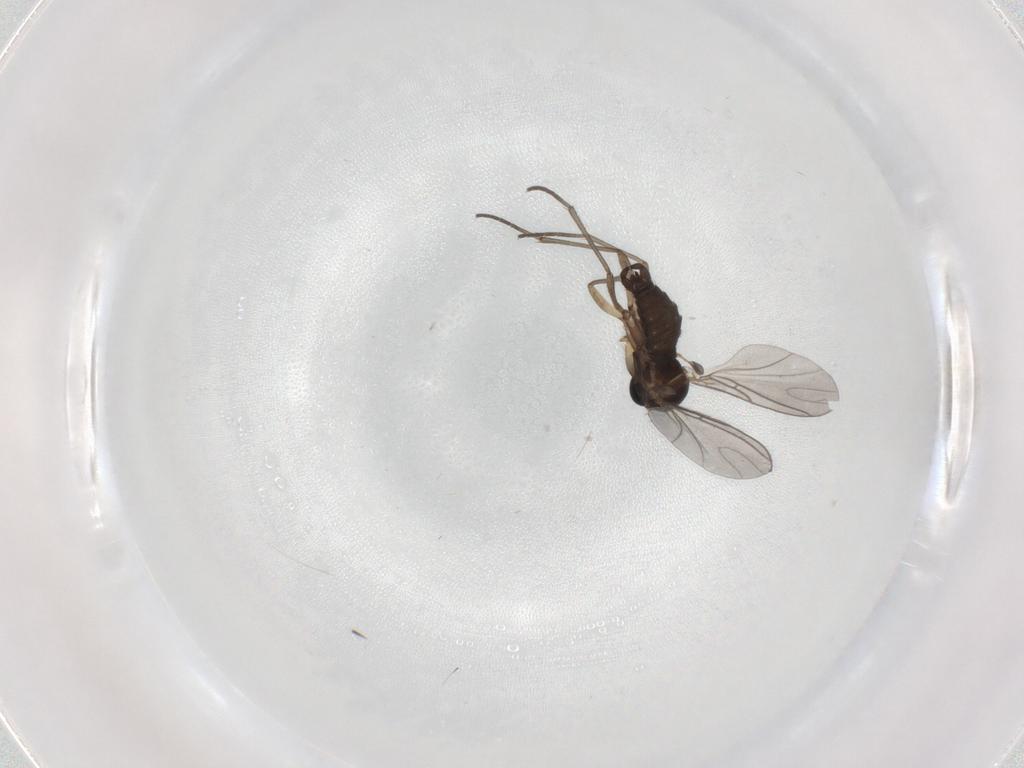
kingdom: Animalia
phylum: Arthropoda
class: Insecta
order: Diptera
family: Sciaridae
